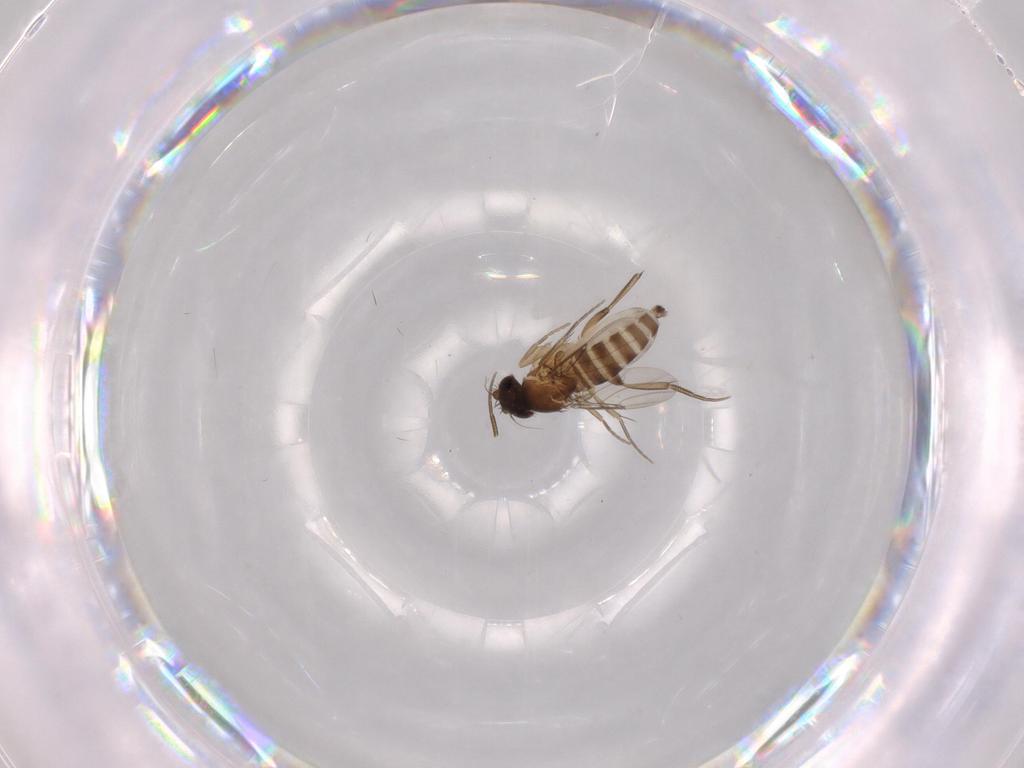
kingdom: Animalia
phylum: Arthropoda
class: Insecta
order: Diptera
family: Phoridae
